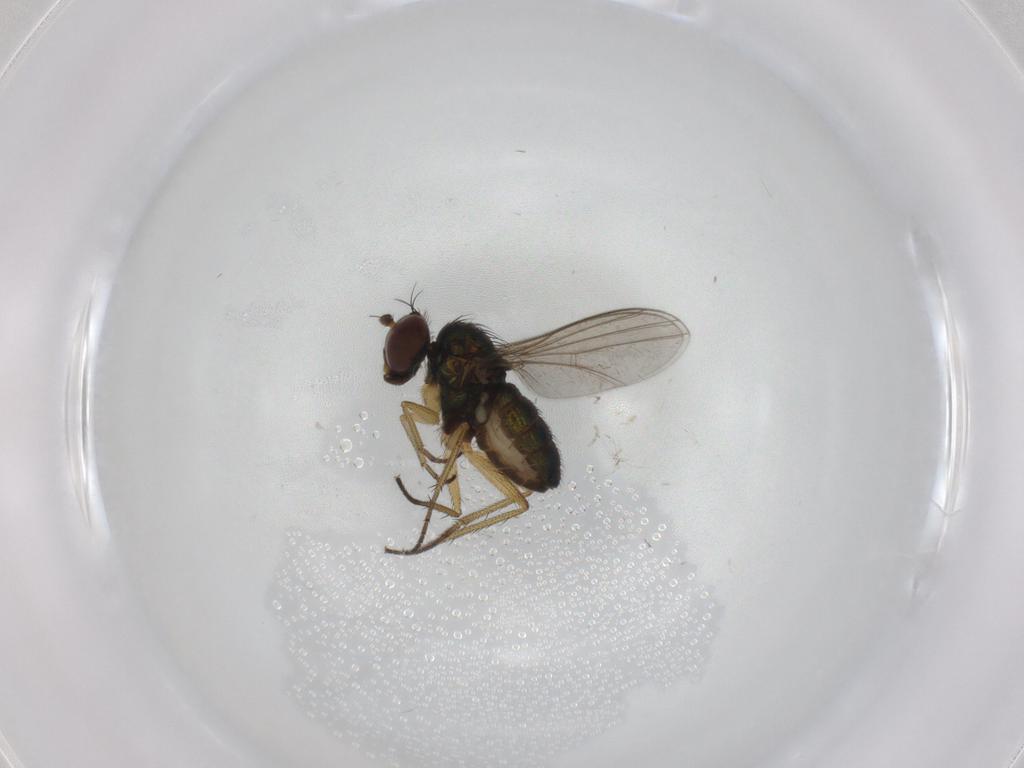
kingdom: Animalia
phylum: Arthropoda
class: Insecta
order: Diptera
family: Dolichopodidae
